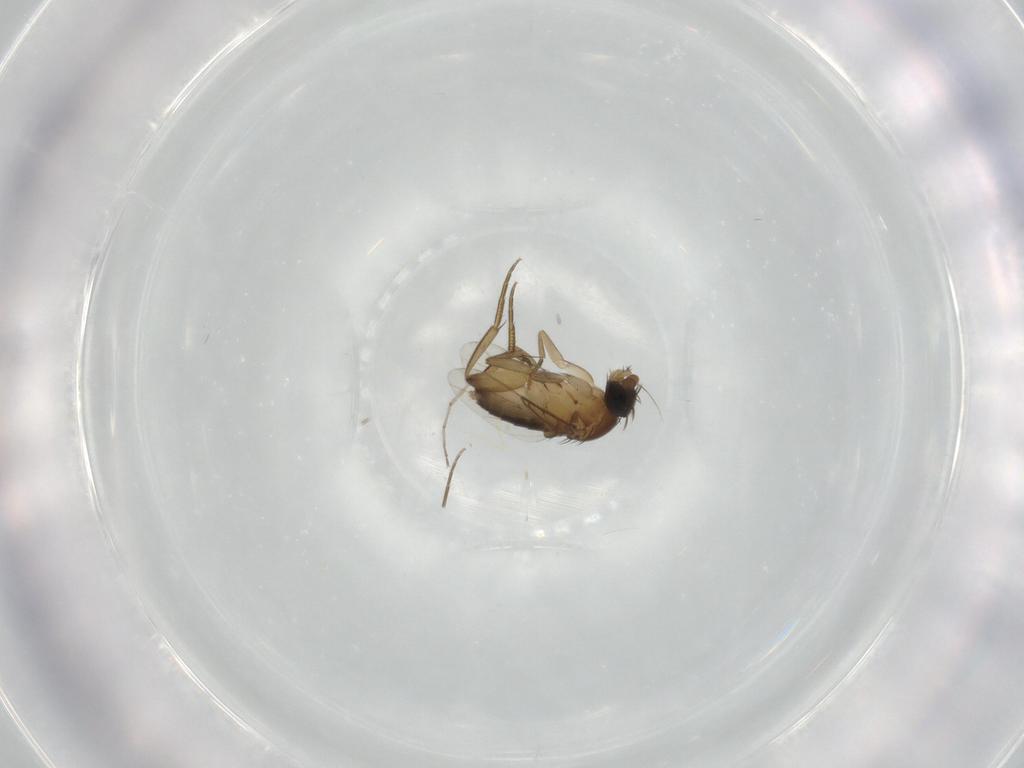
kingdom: Animalia
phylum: Arthropoda
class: Insecta
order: Diptera
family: Phoridae
